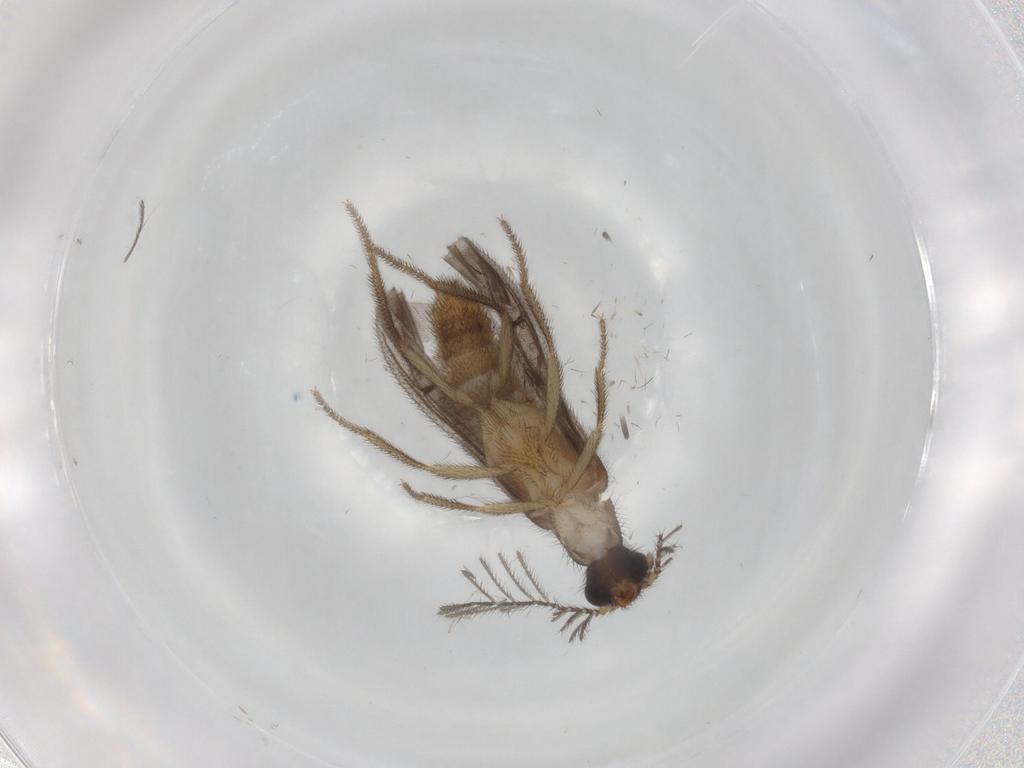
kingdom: Animalia
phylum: Arthropoda
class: Insecta
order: Coleoptera
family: Phengodidae
